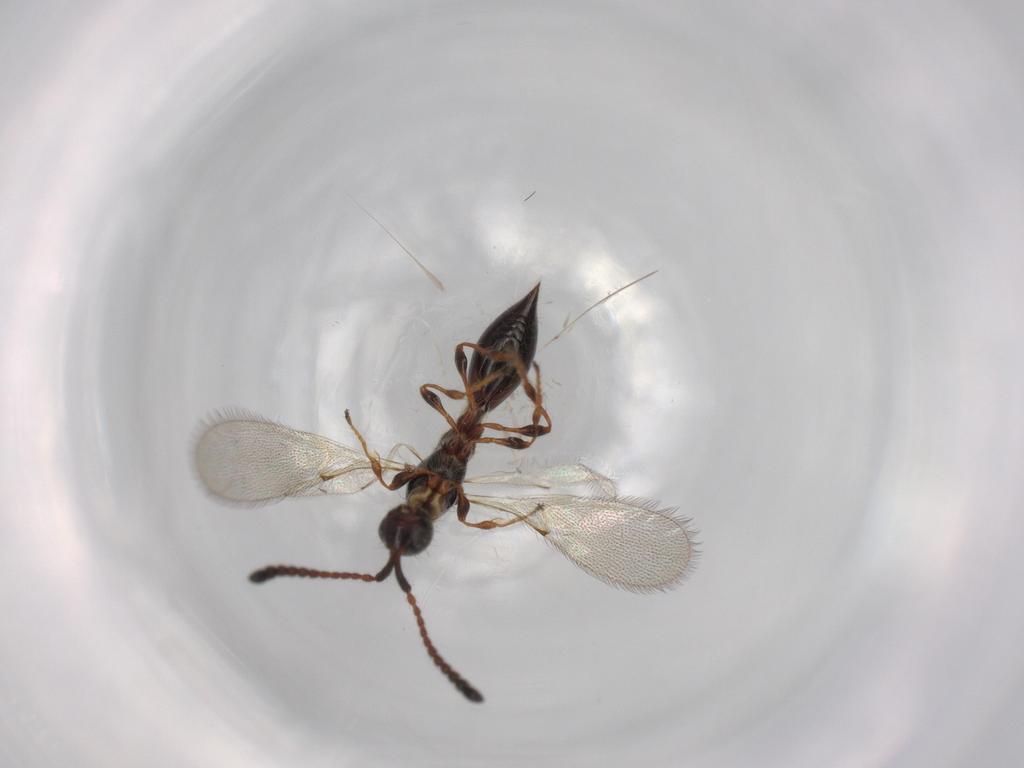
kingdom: Animalia
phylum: Arthropoda
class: Insecta
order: Hymenoptera
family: Diapriidae
